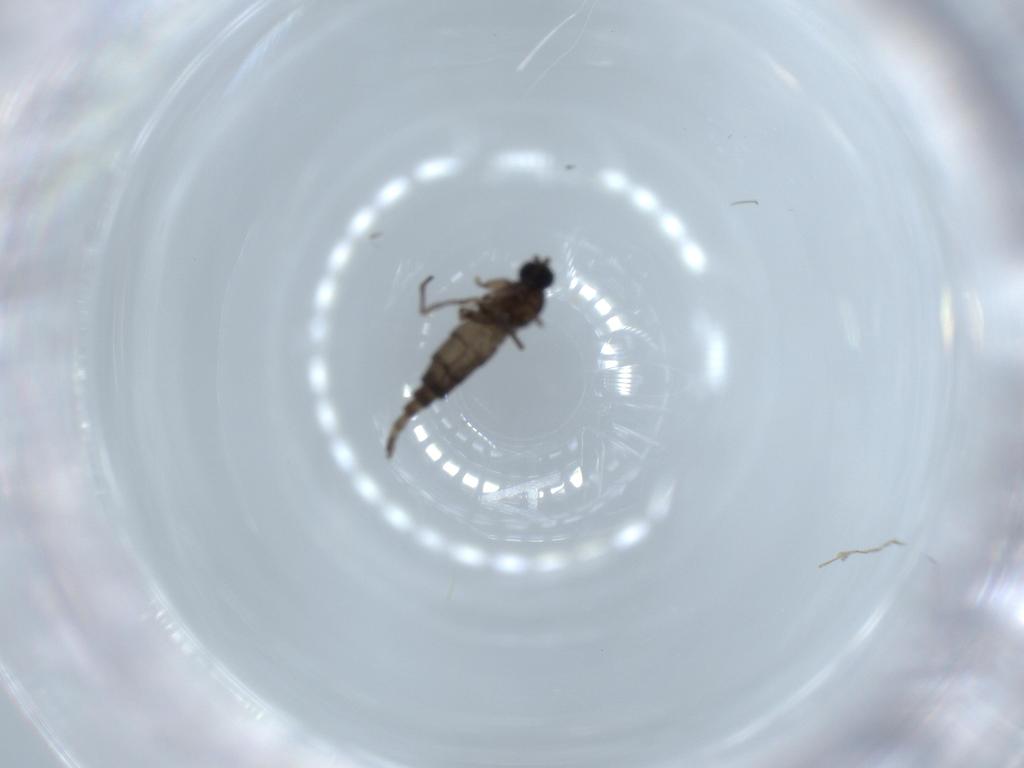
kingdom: Animalia
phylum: Arthropoda
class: Insecta
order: Diptera
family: Sciaridae
